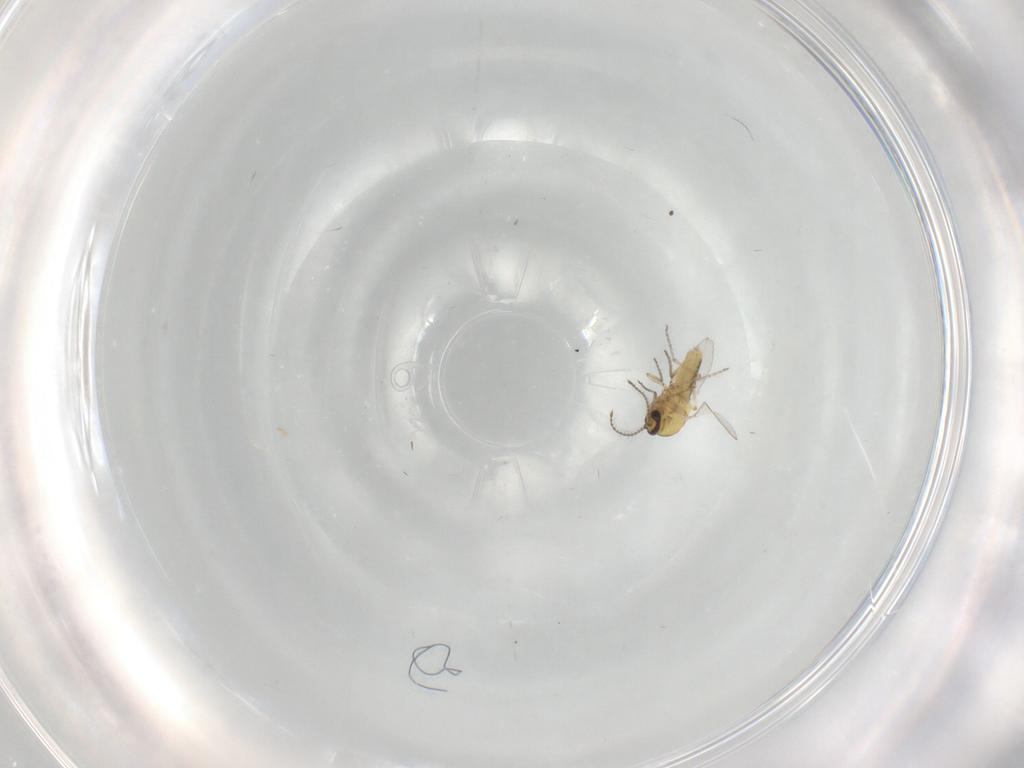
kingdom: Animalia
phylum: Arthropoda
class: Insecta
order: Diptera
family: Ceratopogonidae
